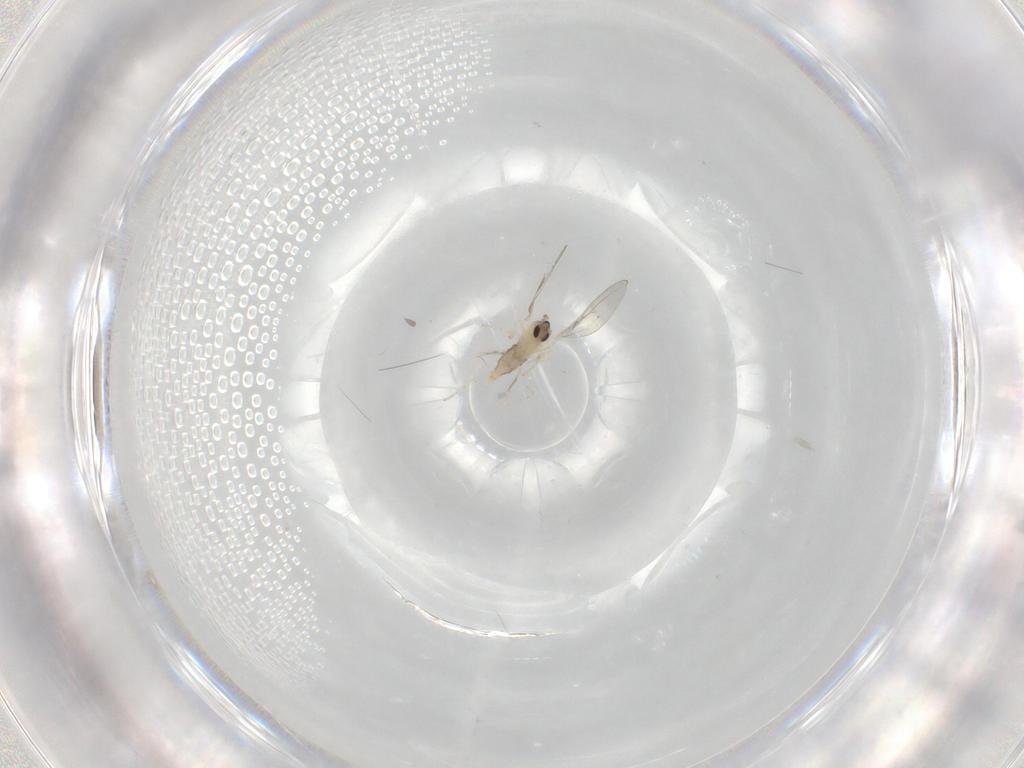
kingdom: Animalia
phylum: Arthropoda
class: Insecta
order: Diptera
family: Cecidomyiidae
